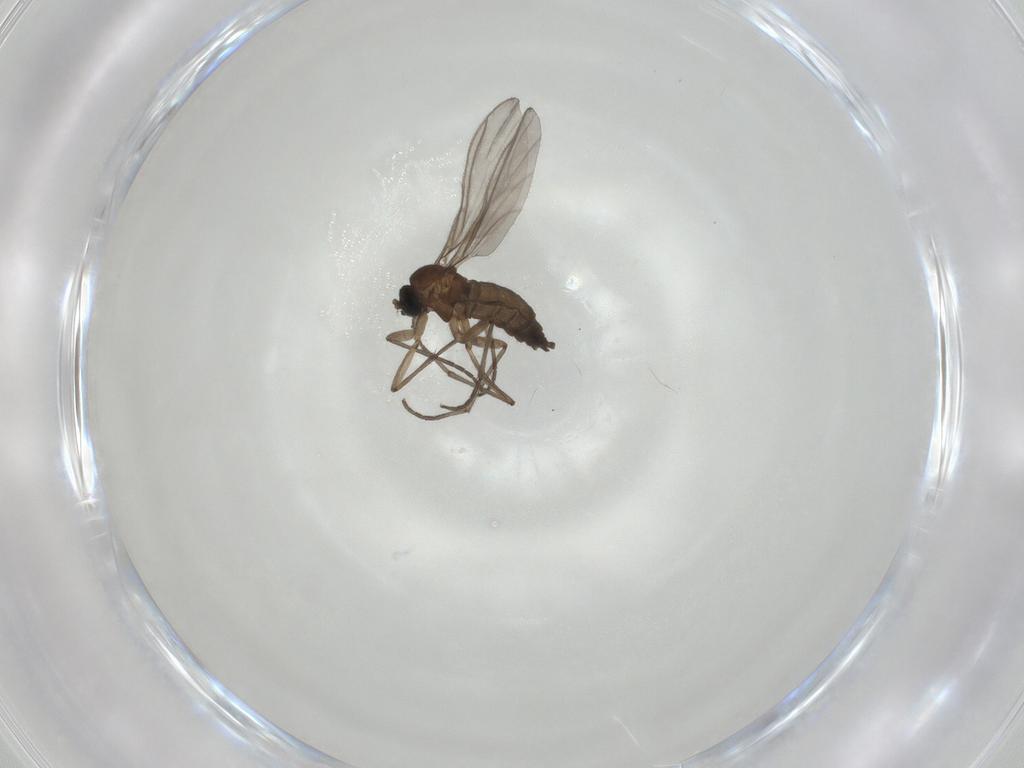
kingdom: Animalia
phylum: Arthropoda
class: Insecta
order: Diptera
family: Sciaridae
